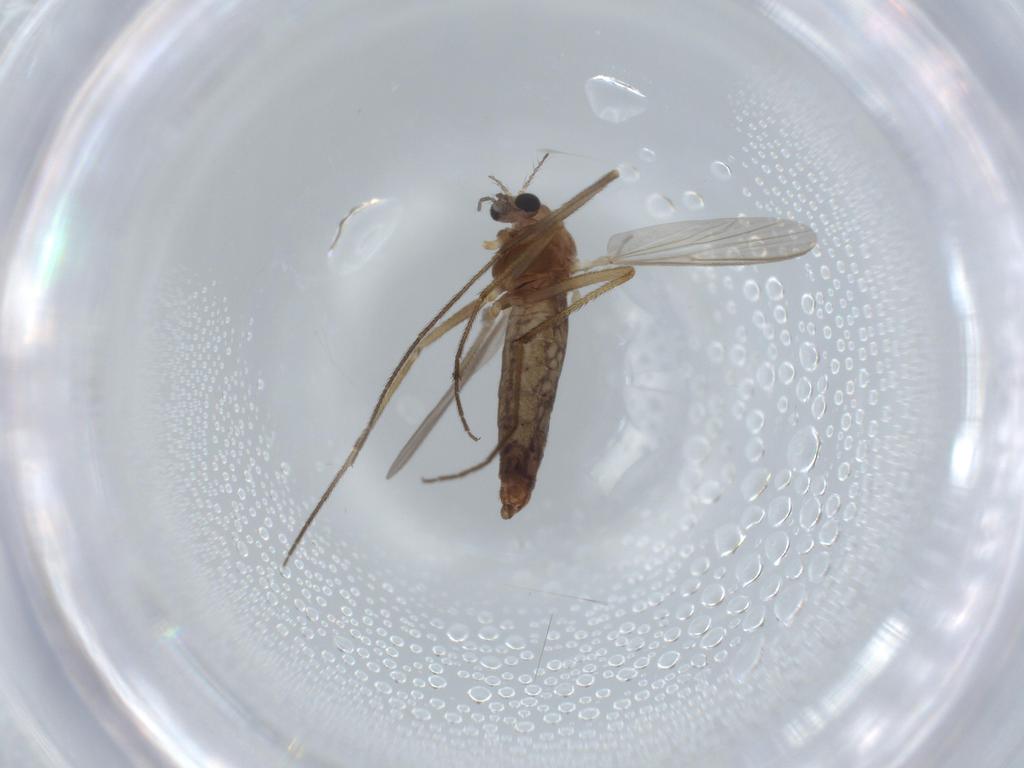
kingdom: Animalia
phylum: Arthropoda
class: Insecta
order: Diptera
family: Chironomidae
